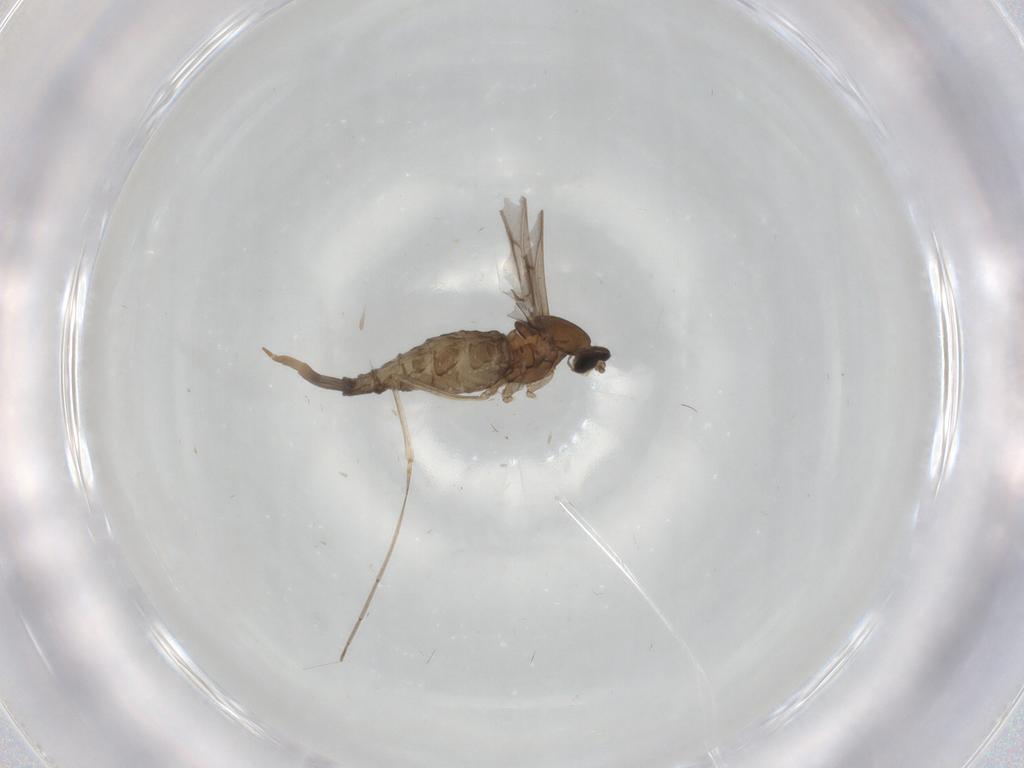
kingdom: Animalia
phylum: Arthropoda
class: Insecta
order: Diptera
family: Cecidomyiidae
